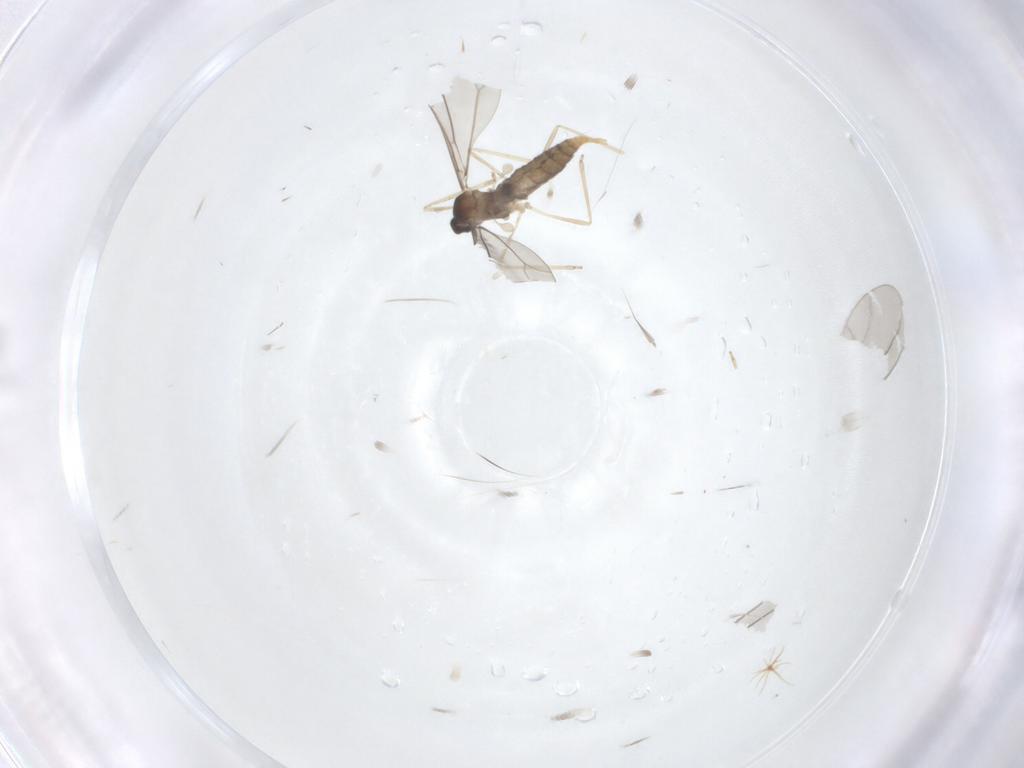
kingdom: Animalia
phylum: Arthropoda
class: Insecta
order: Diptera
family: Cecidomyiidae
